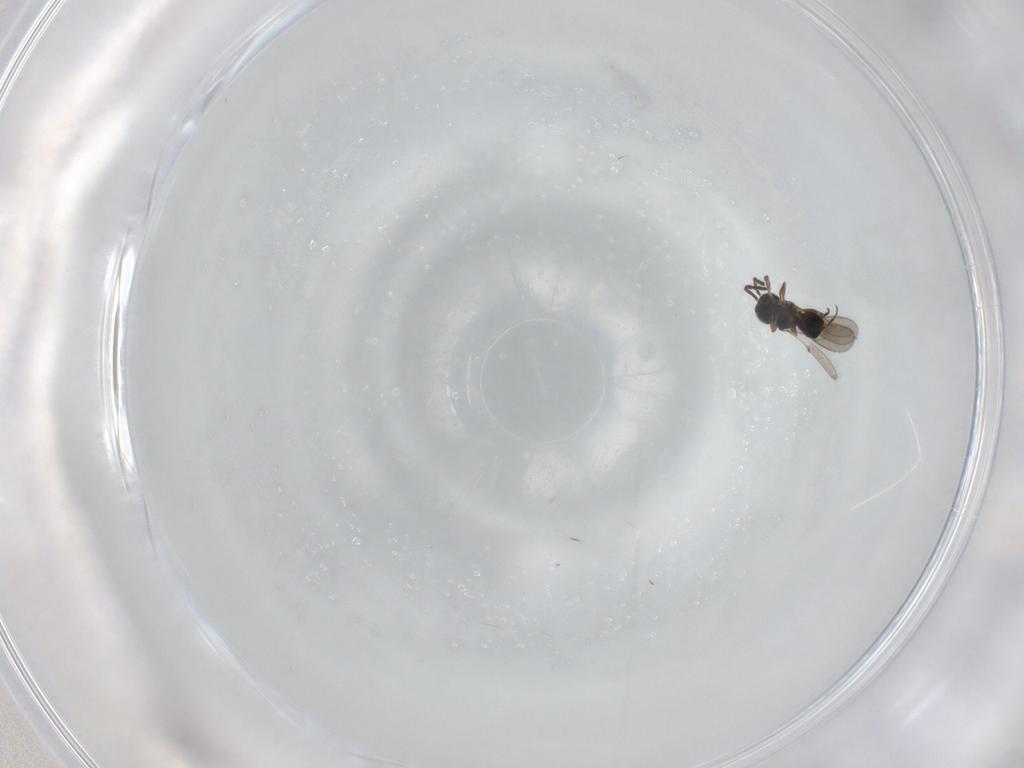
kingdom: Animalia
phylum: Arthropoda
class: Insecta
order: Hymenoptera
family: Scelionidae
